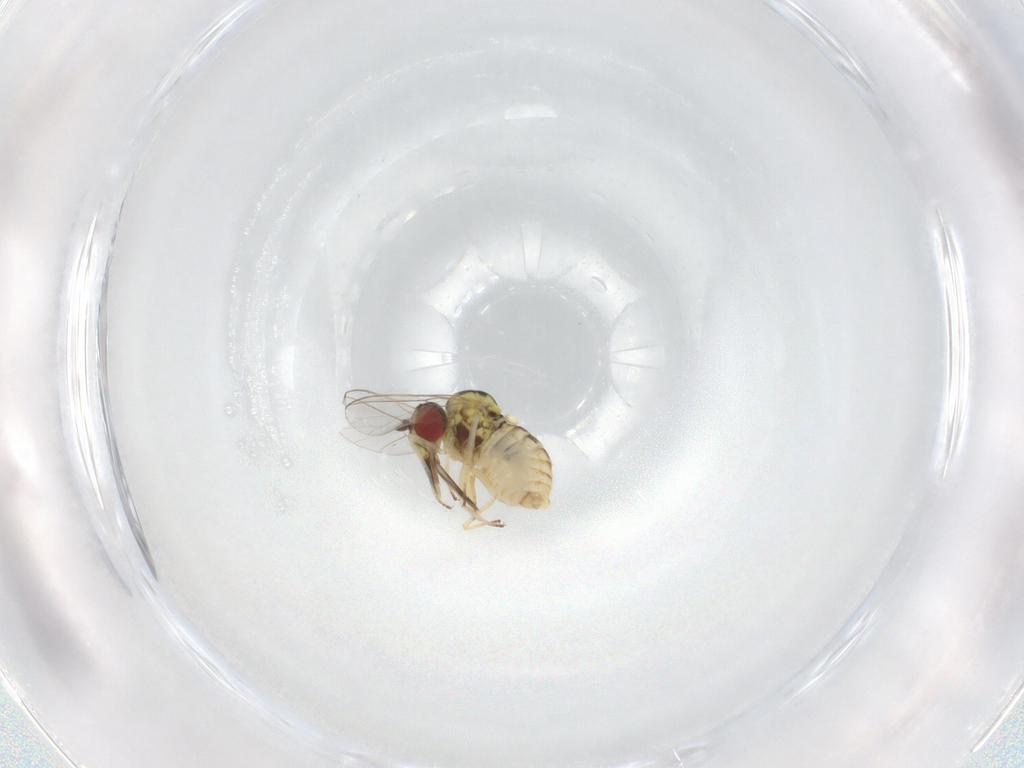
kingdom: Animalia
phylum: Arthropoda
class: Insecta
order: Diptera
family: Bombyliidae
